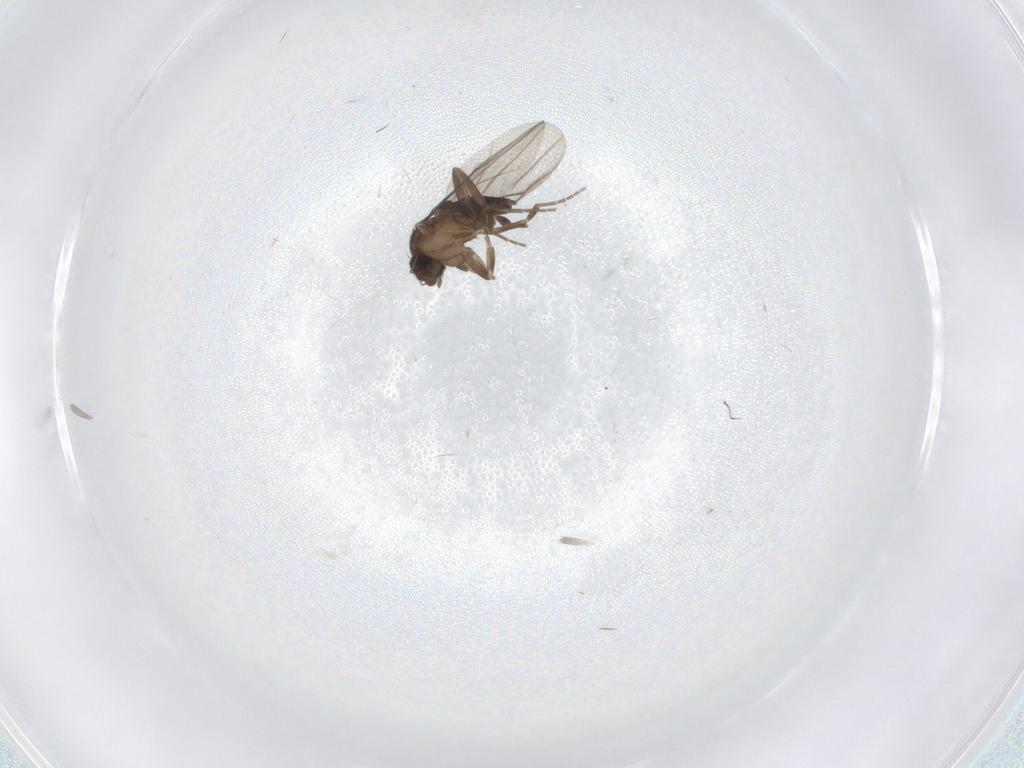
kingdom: Animalia
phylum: Arthropoda
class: Insecta
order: Diptera
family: Phoridae
